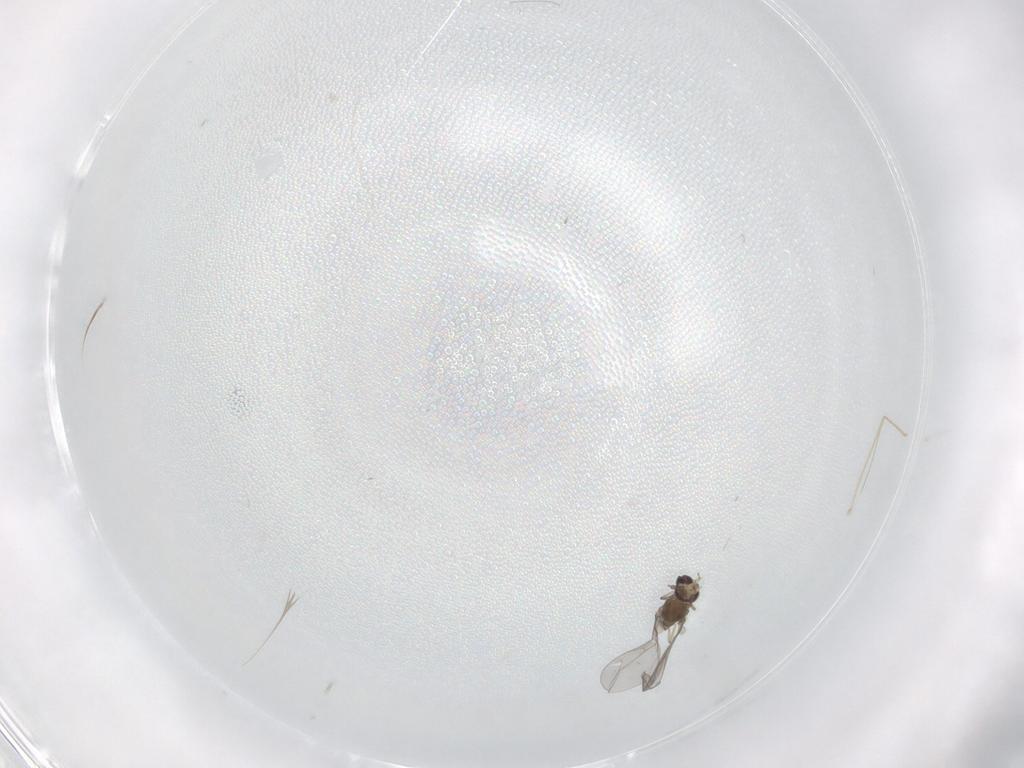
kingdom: Animalia
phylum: Arthropoda
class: Insecta
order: Diptera
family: Cecidomyiidae
